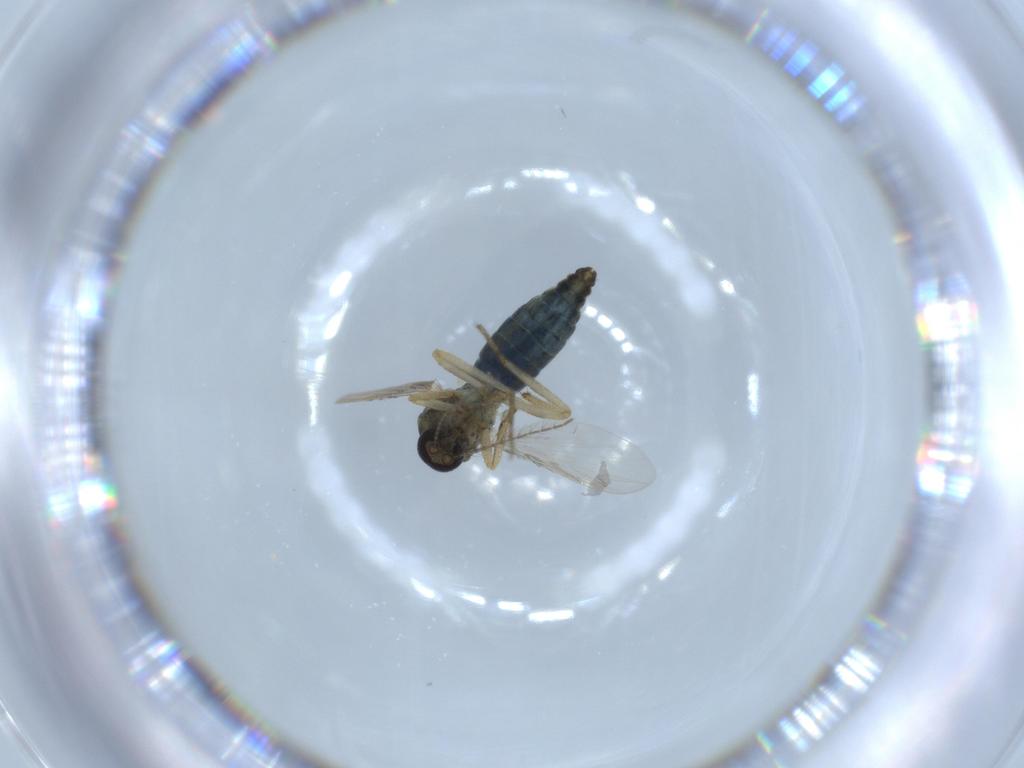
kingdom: Animalia
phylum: Arthropoda
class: Insecta
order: Diptera
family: Ceratopogonidae
